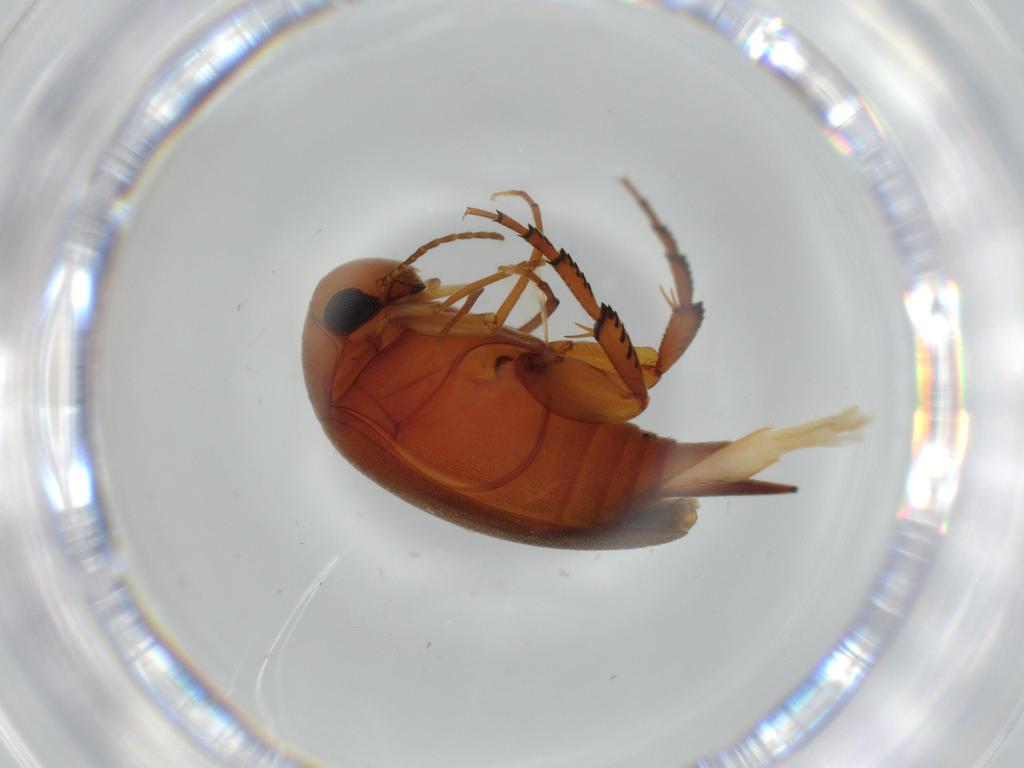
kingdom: Animalia
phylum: Arthropoda
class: Insecta
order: Coleoptera
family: Mordellidae
